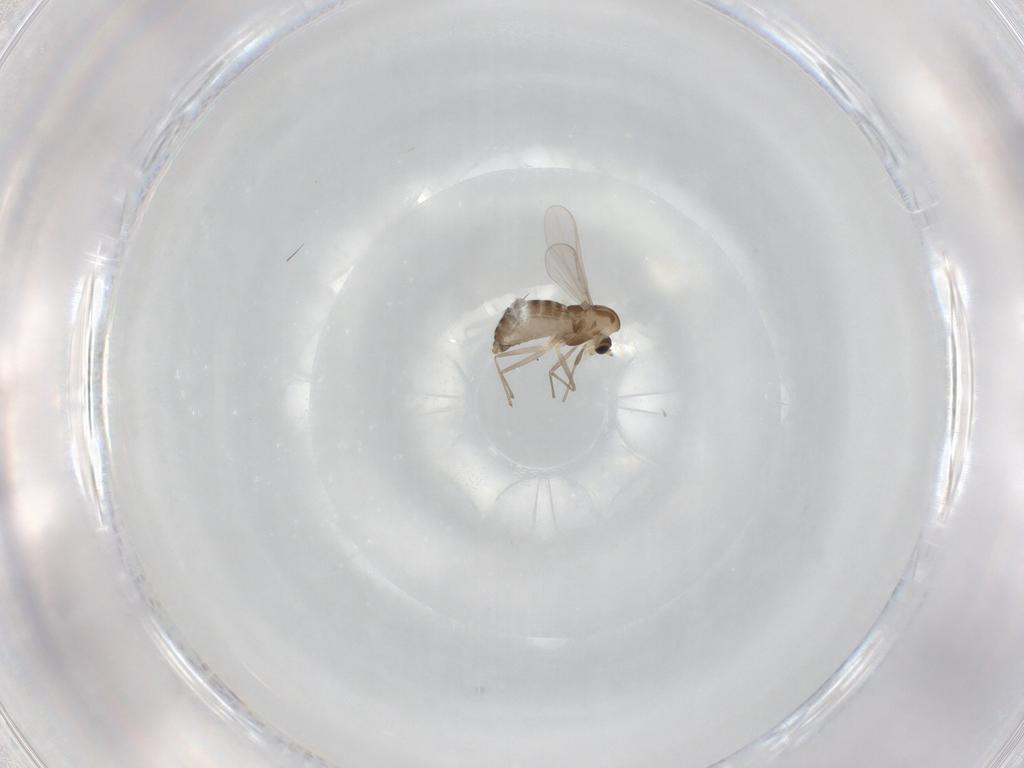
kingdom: Animalia
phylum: Arthropoda
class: Insecta
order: Diptera
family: Chironomidae
